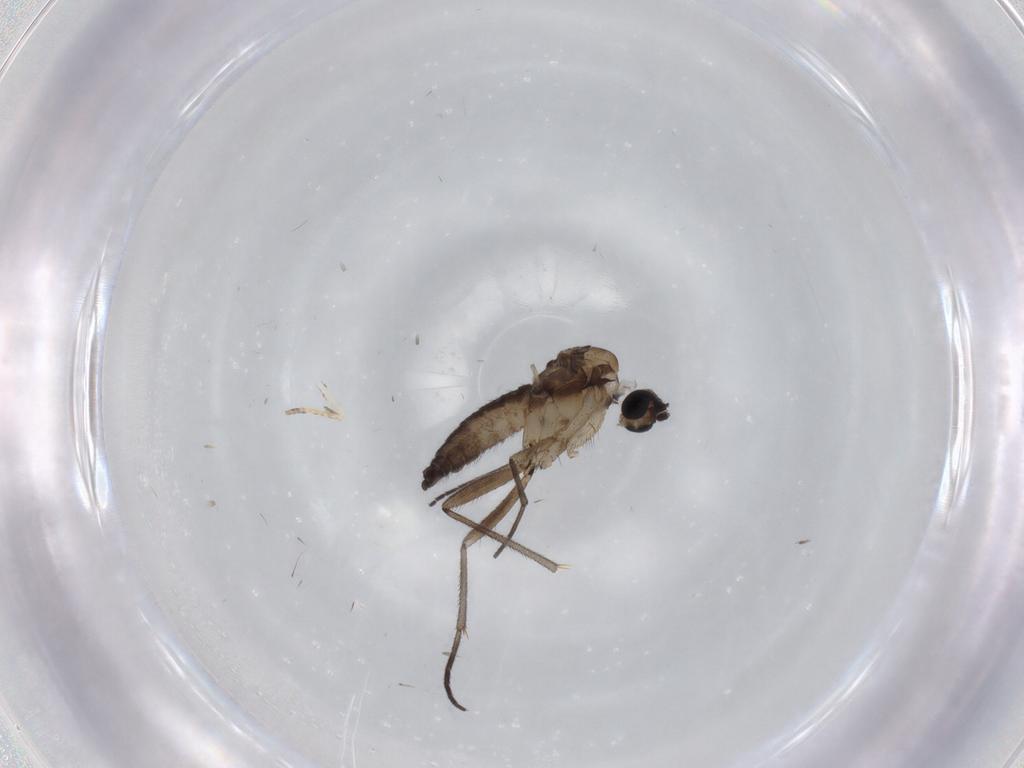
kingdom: Animalia
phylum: Arthropoda
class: Insecta
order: Diptera
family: Sciaridae
